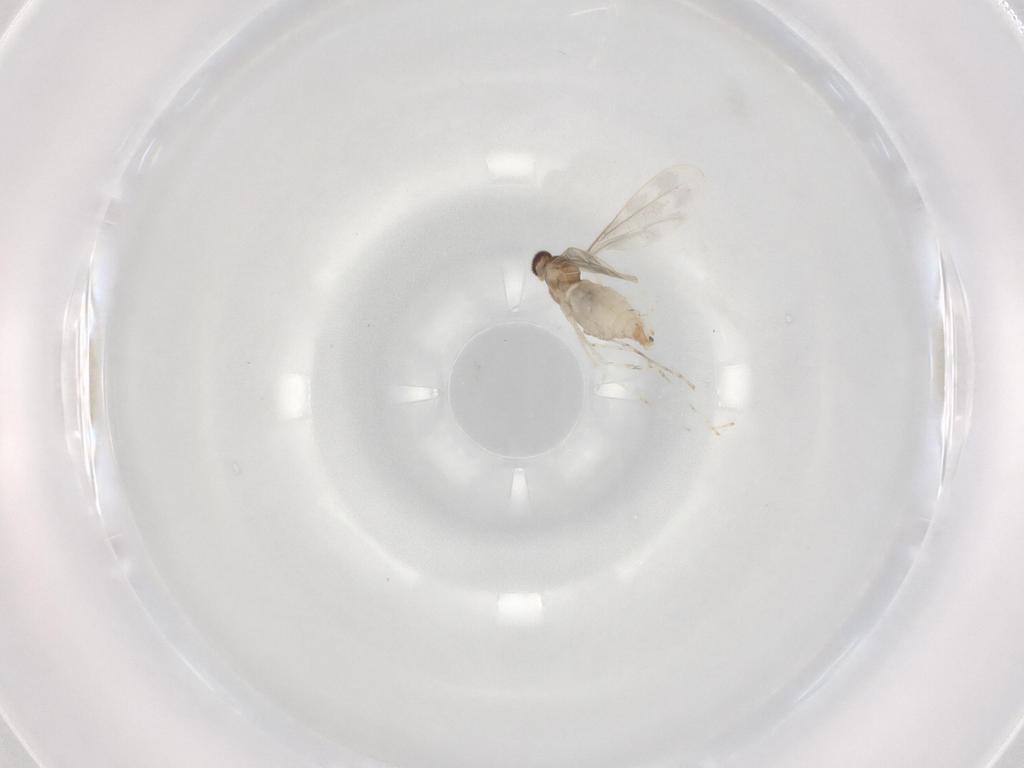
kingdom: Animalia
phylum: Arthropoda
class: Insecta
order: Diptera
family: Cecidomyiidae
